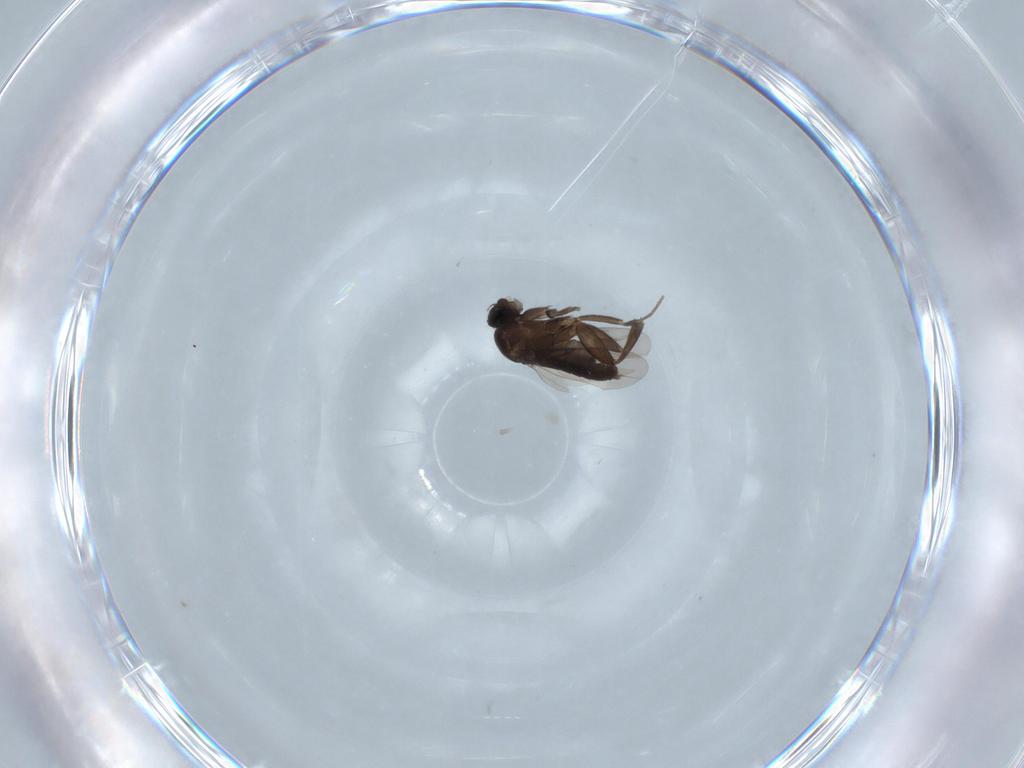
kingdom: Animalia
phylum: Arthropoda
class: Insecta
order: Diptera
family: Phoridae
